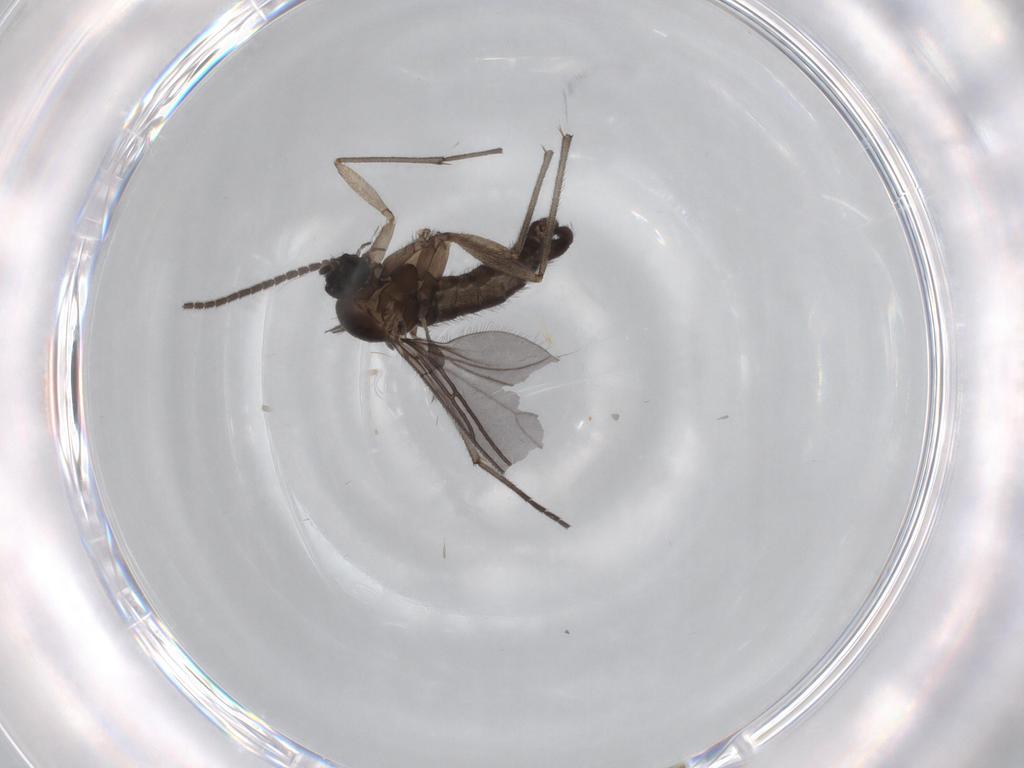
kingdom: Animalia
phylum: Arthropoda
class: Insecta
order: Diptera
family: Sciaridae
